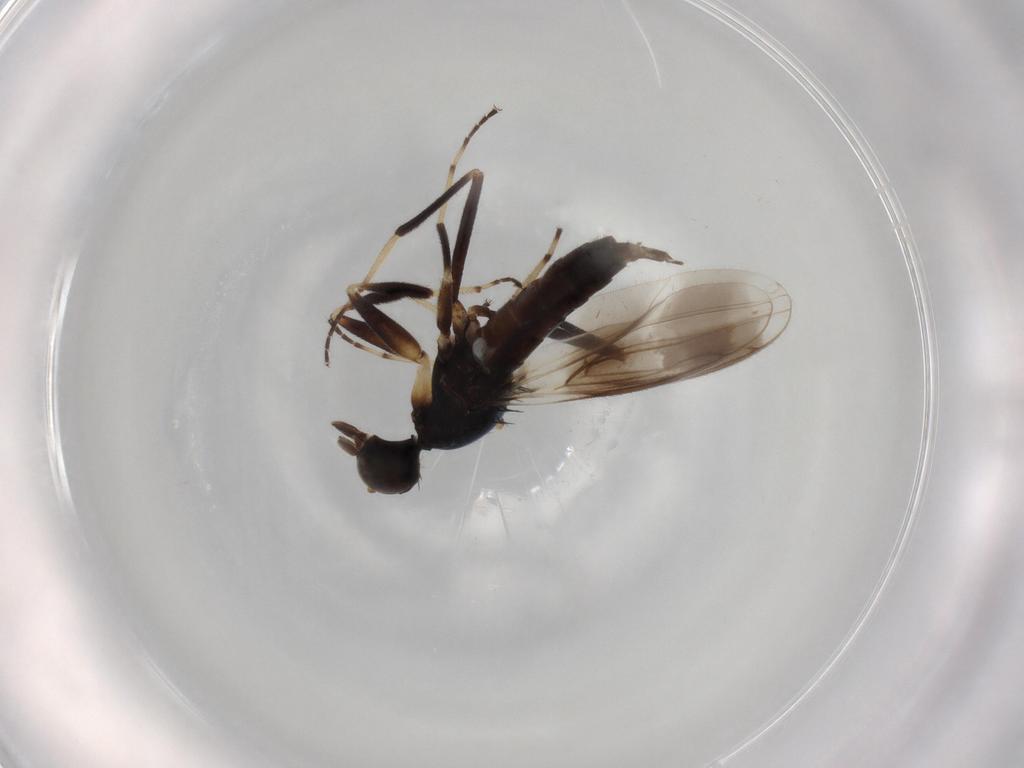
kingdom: Animalia
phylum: Arthropoda
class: Insecta
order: Diptera
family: Hybotidae
